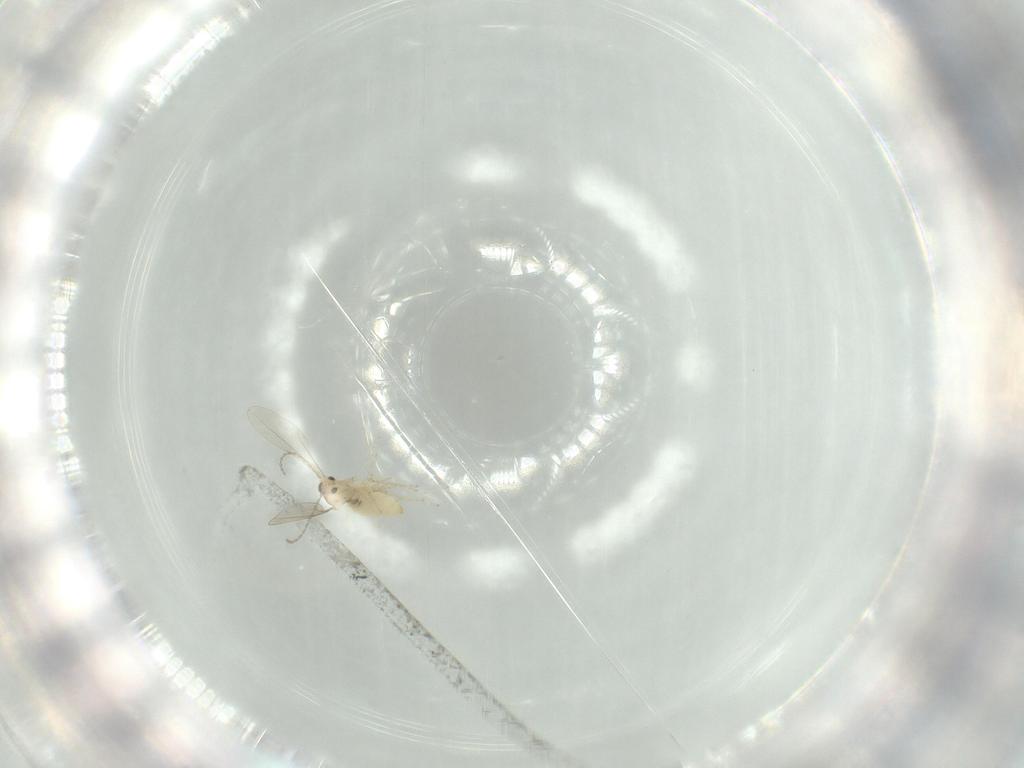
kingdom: Animalia
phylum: Arthropoda
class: Insecta
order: Diptera
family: Sciaridae
